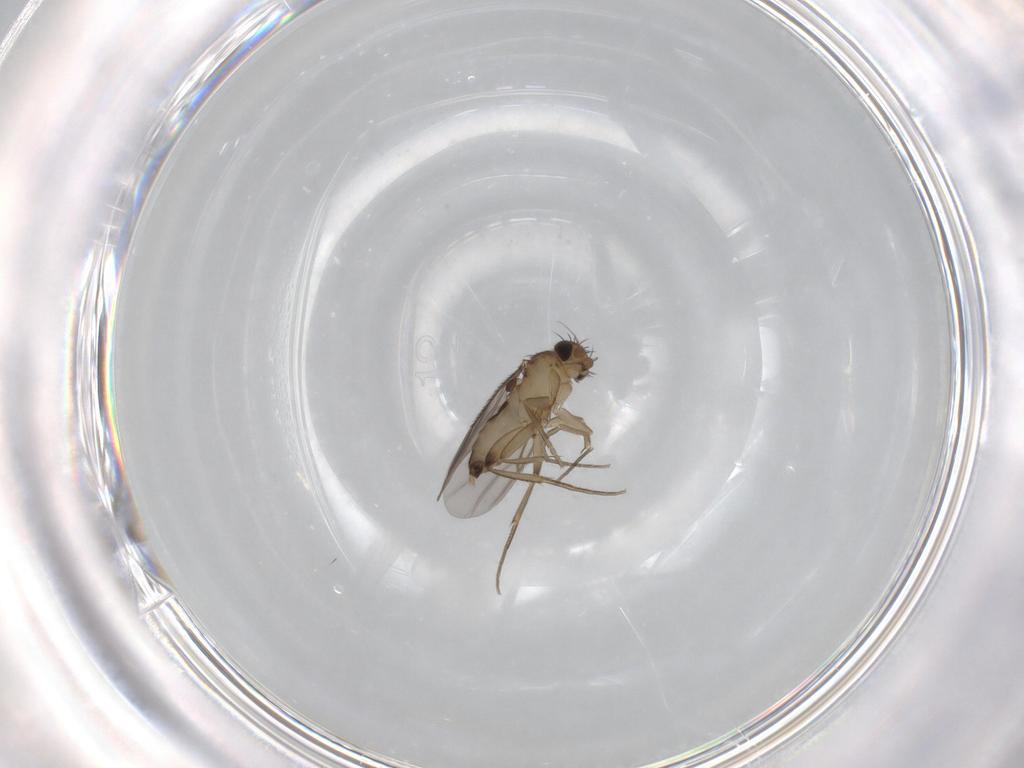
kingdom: Animalia
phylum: Arthropoda
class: Insecta
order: Diptera
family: Phoridae
